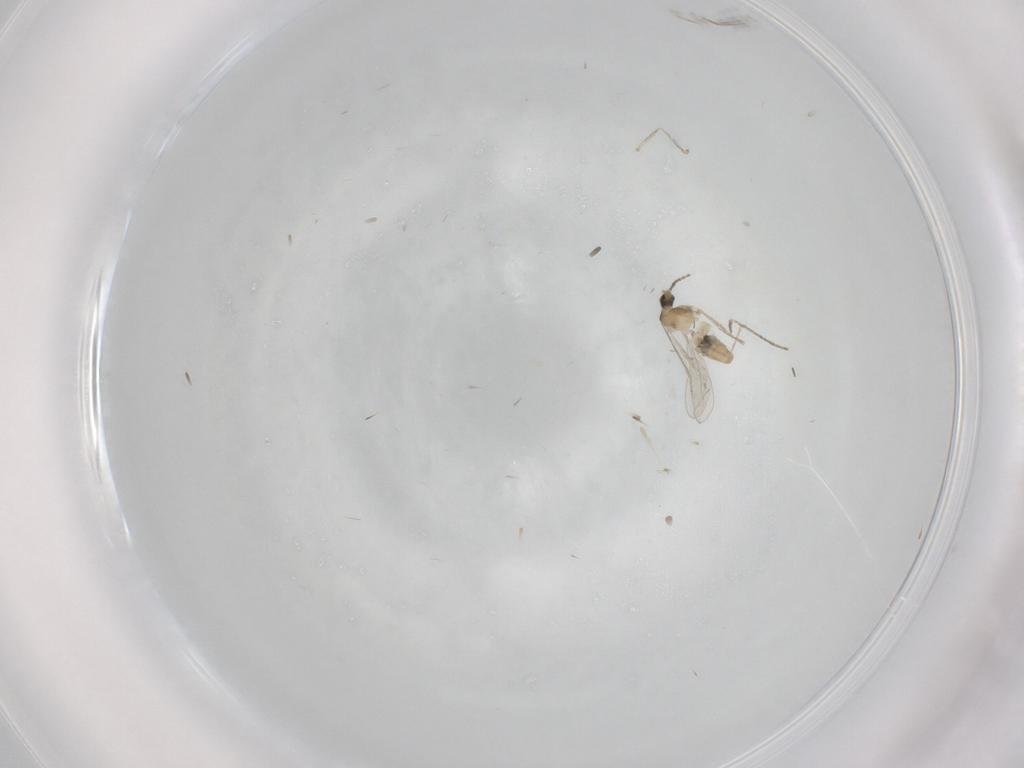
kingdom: Animalia
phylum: Arthropoda
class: Insecta
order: Diptera
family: Cecidomyiidae
